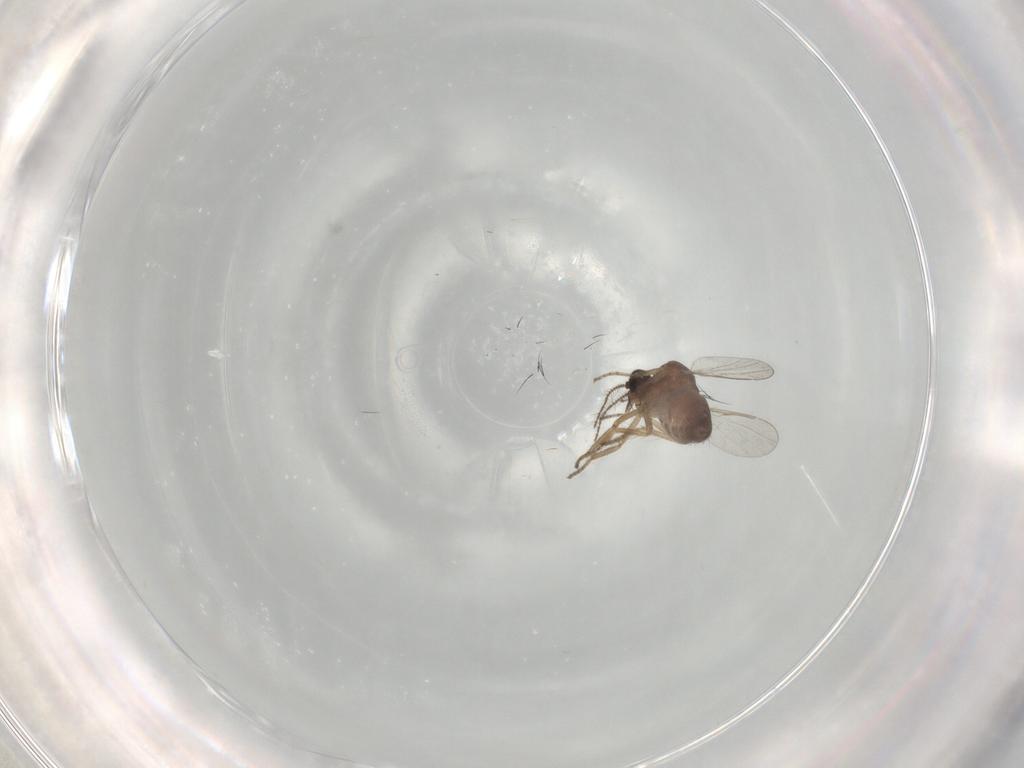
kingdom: Animalia
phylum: Arthropoda
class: Insecta
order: Diptera
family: Ceratopogonidae
